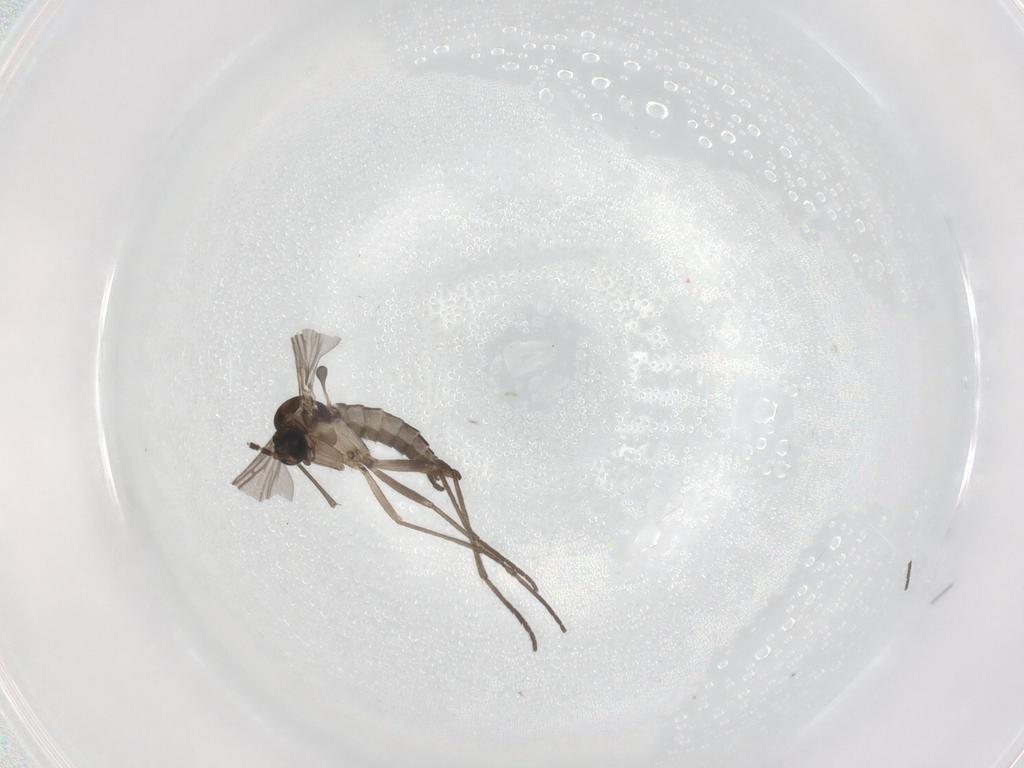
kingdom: Animalia
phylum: Arthropoda
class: Insecta
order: Diptera
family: Sciaridae
